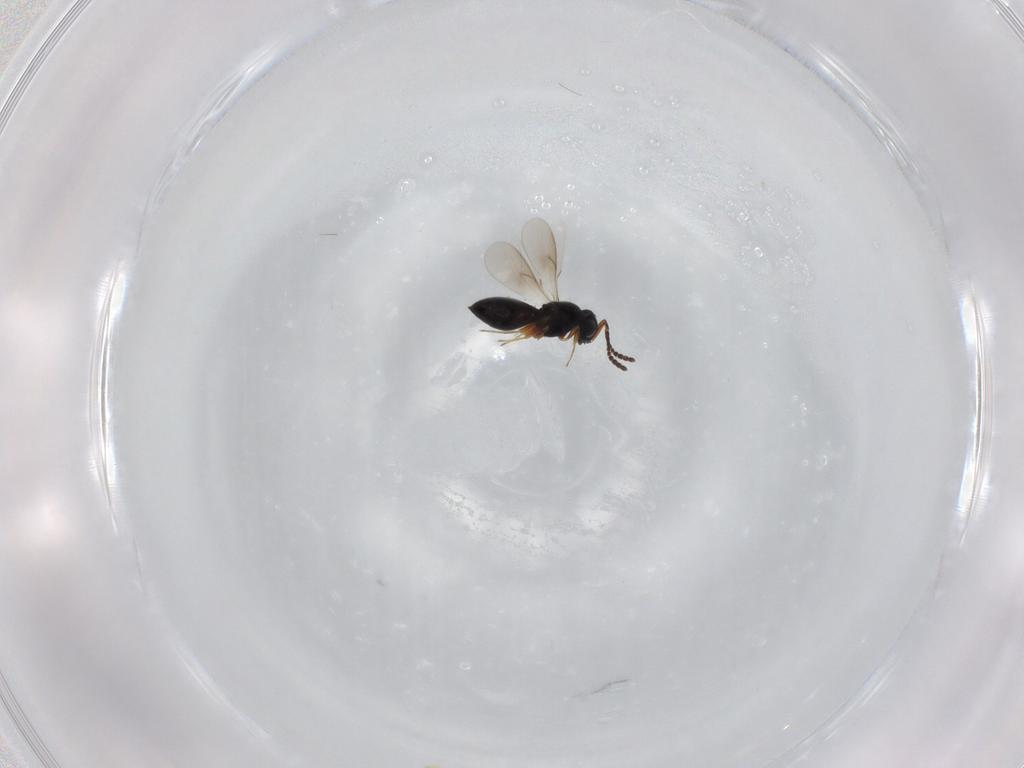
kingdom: Animalia
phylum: Arthropoda
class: Insecta
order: Hymenoptera
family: Scelionidae
